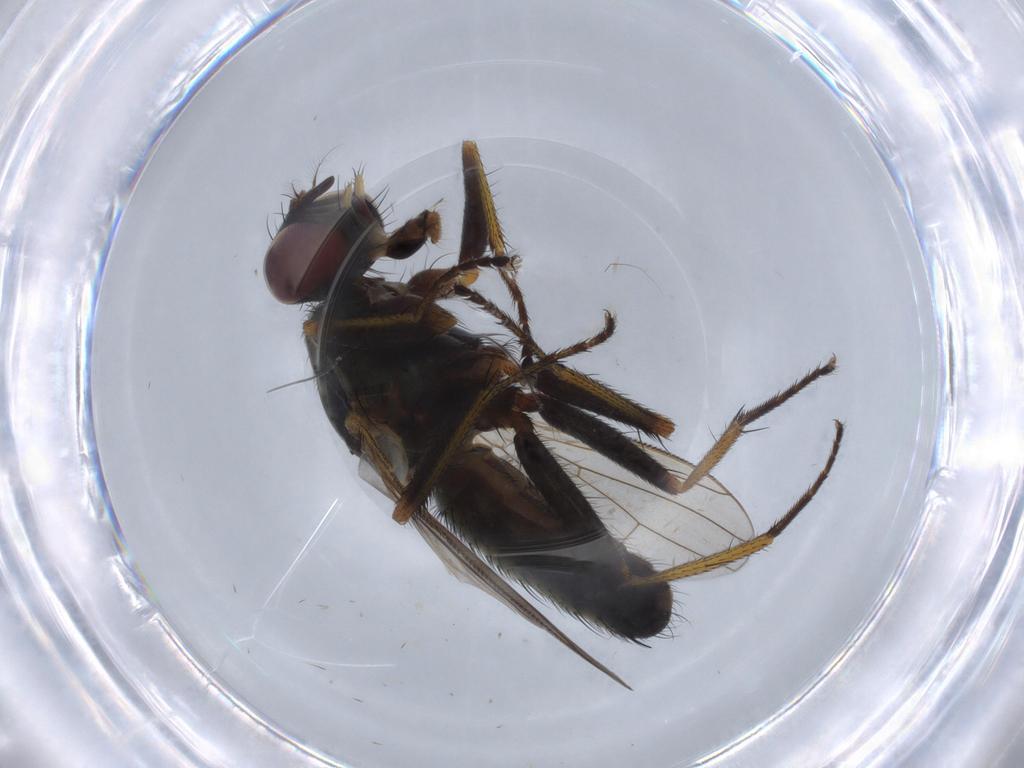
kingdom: Animalia
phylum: Arthropoda
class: Insecta
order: Diptera
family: Muscidae
